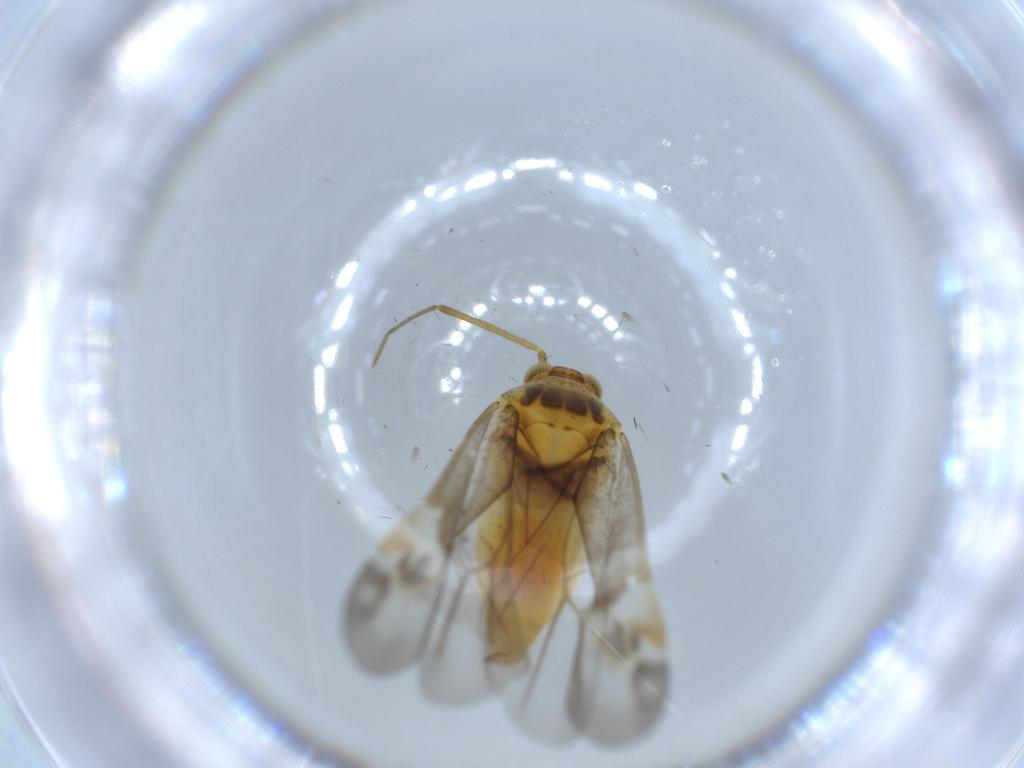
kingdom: Animalia
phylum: Arthropoda
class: Insecta
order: Hemiptera
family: Miridae
